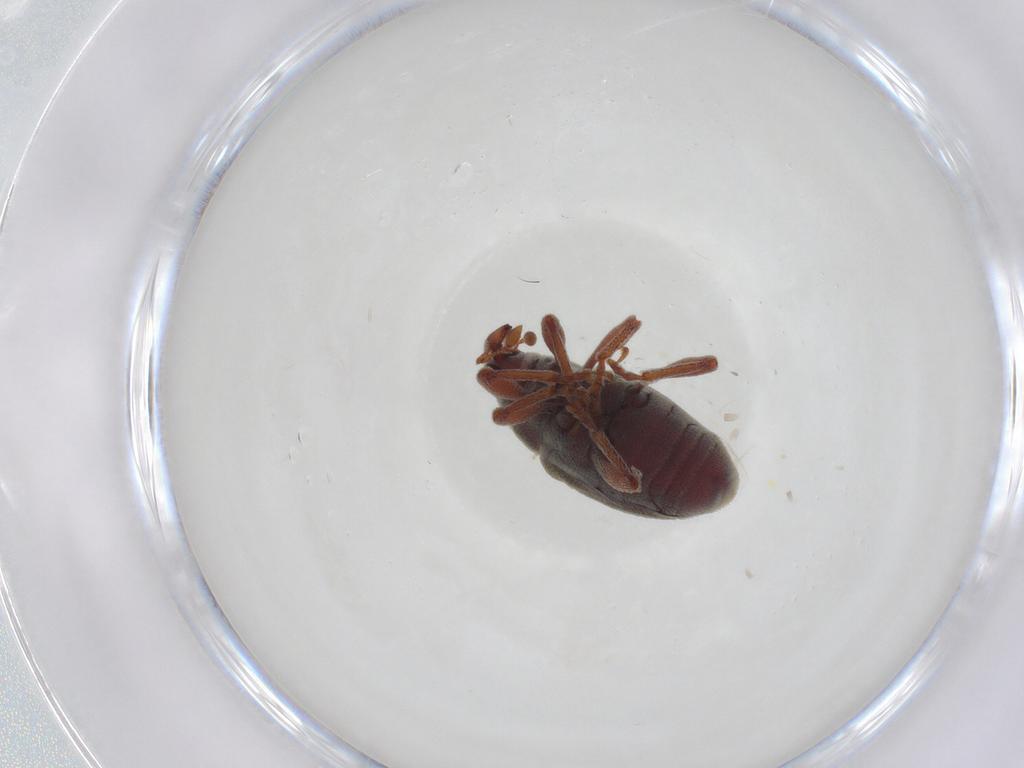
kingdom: Animalia
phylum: Arthropoda
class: Insecta
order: Coleoptera
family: Curculionidae
